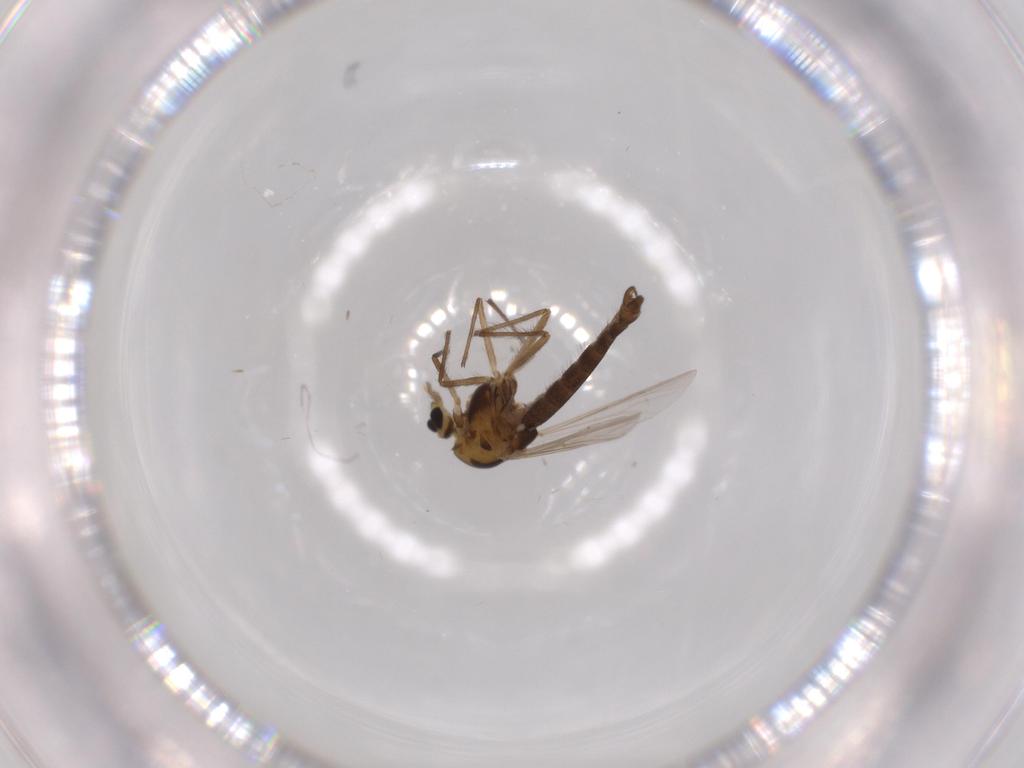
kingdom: Animalia
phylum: Arthropoda
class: Insecta
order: Diptera
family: Chironomidae
